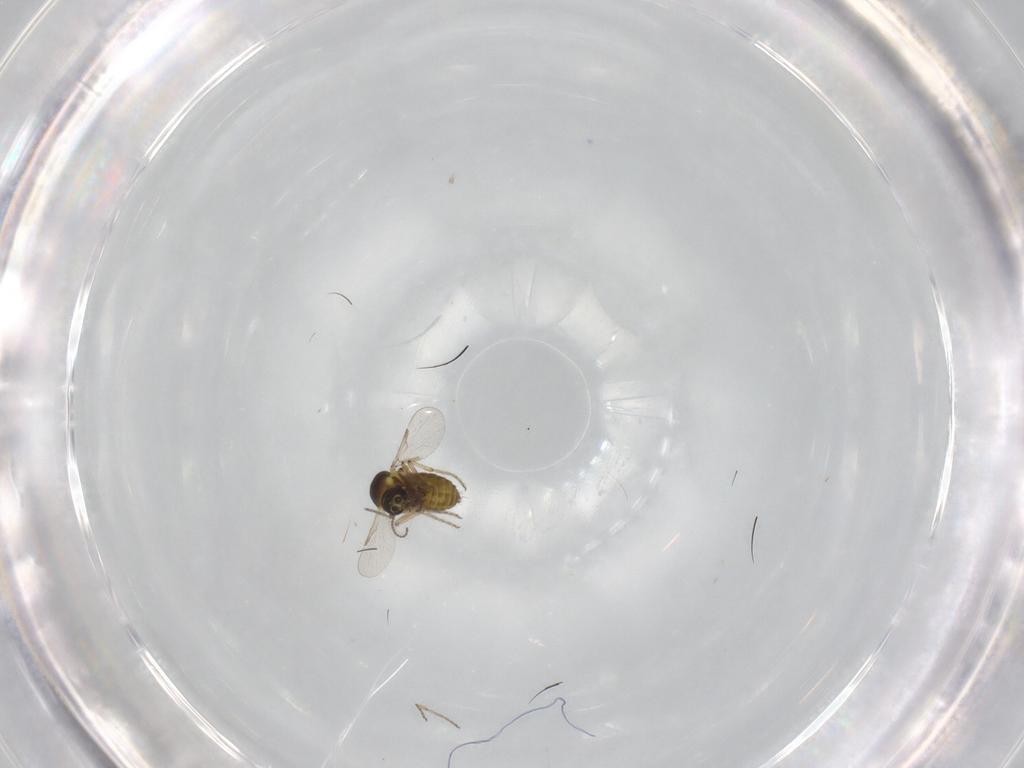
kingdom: Animalia
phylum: Arthropoda
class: Insecta
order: Diptera
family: Ceratopogonidae
